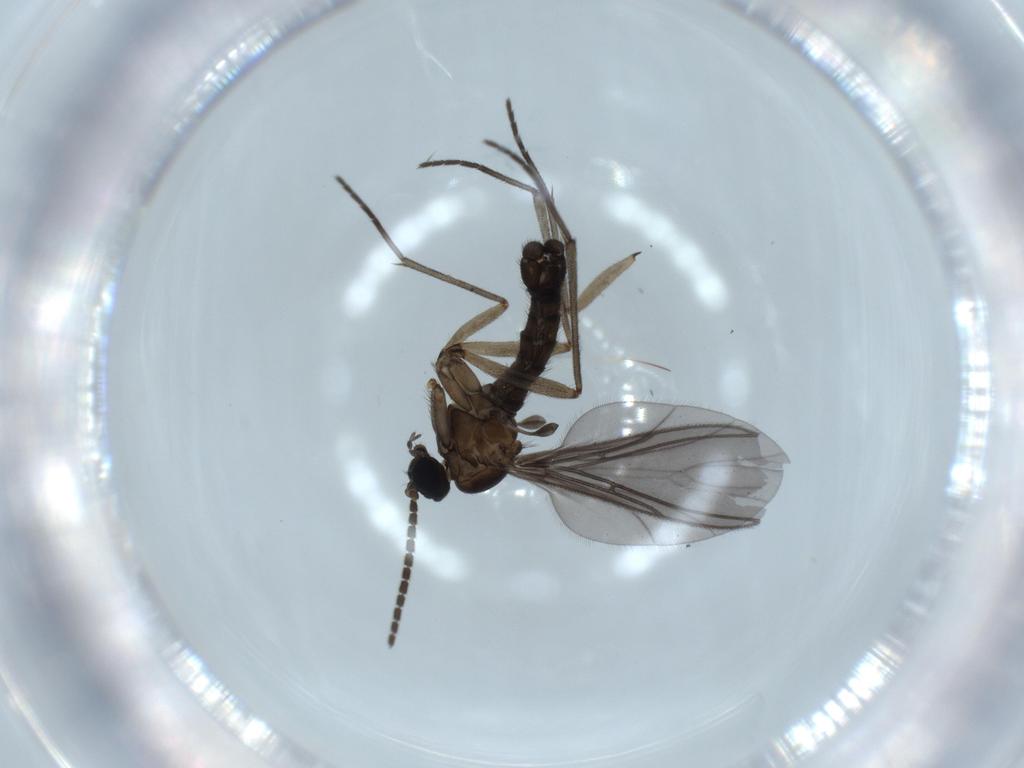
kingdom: Animalia
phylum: Arthropoda
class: Insecta
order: Diptera
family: Sciaridae
